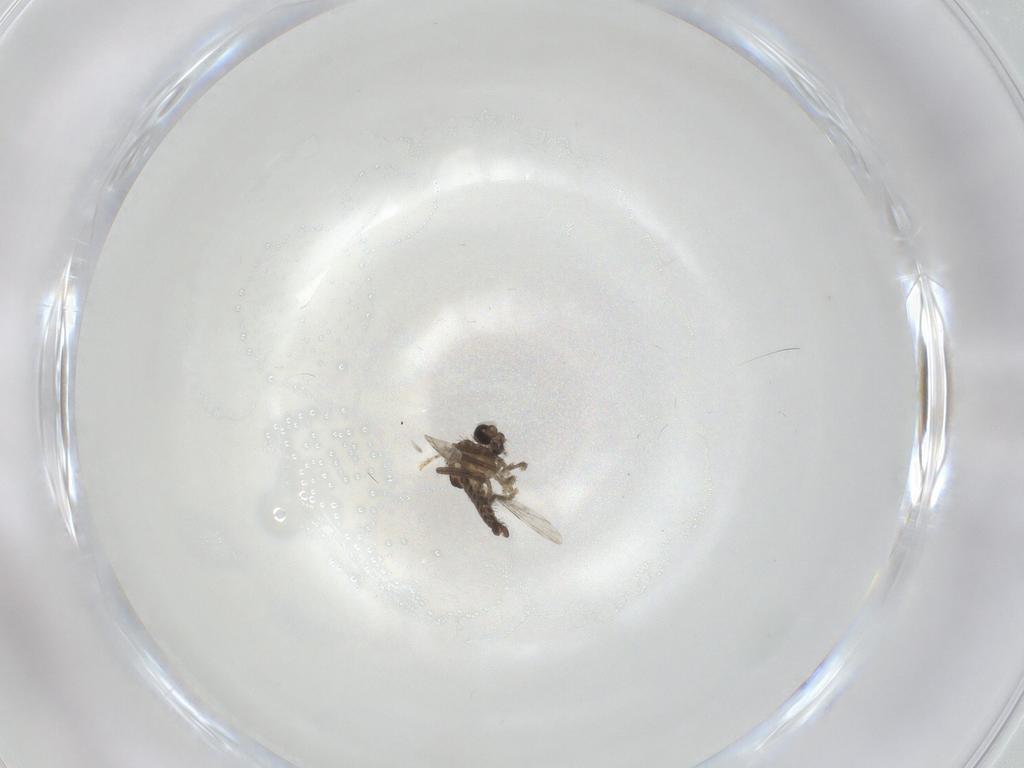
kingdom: Animalia
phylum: Arthropoda
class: Insecta
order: Diptera
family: Ceratopogonidae
